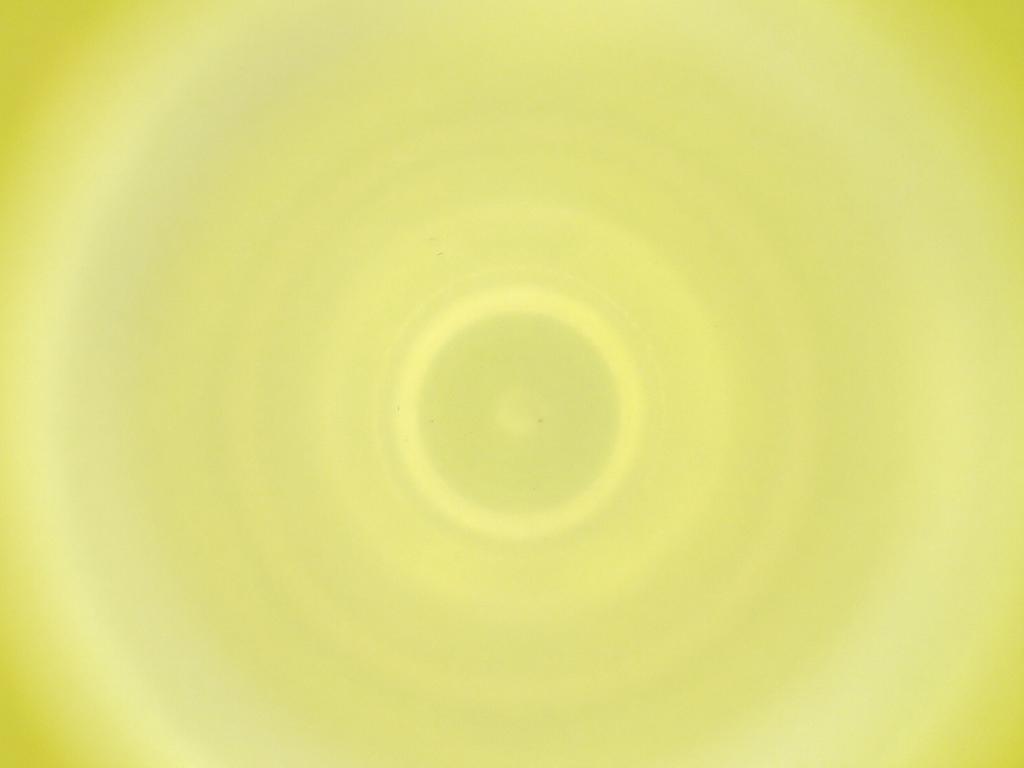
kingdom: Animalia
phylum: Arthropoda
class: Insecta
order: Diptera
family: Cecidomyiidae
